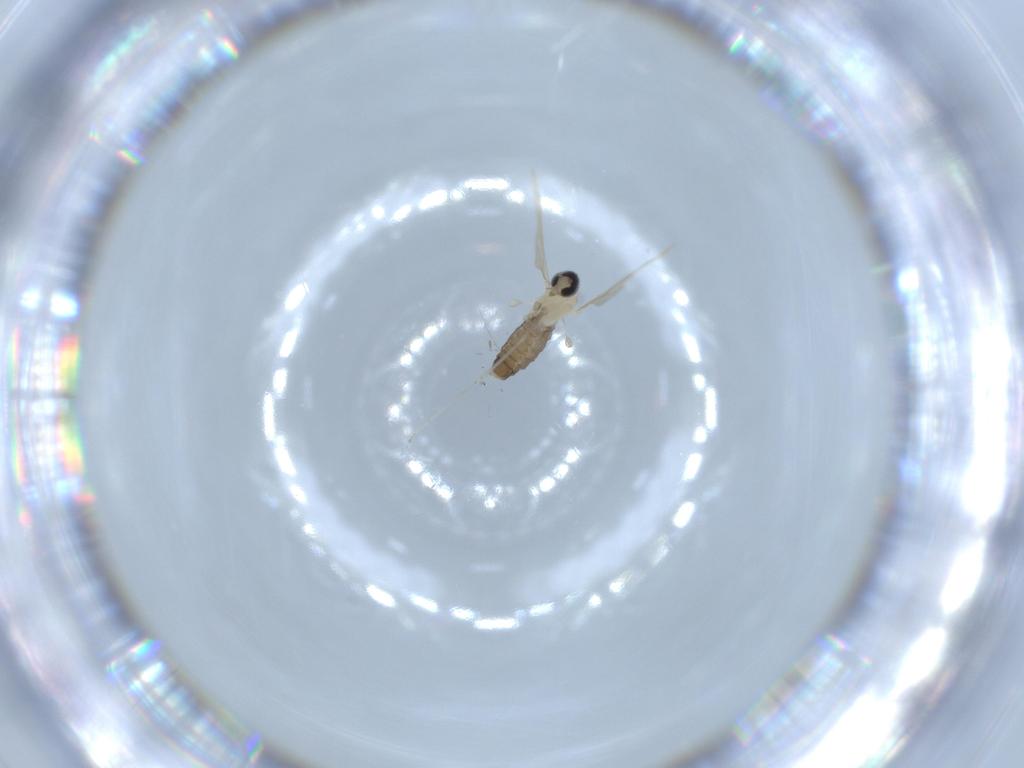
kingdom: Animalia
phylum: Arthropoda
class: Insecta
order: Diptera
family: Cecidomyiidae
